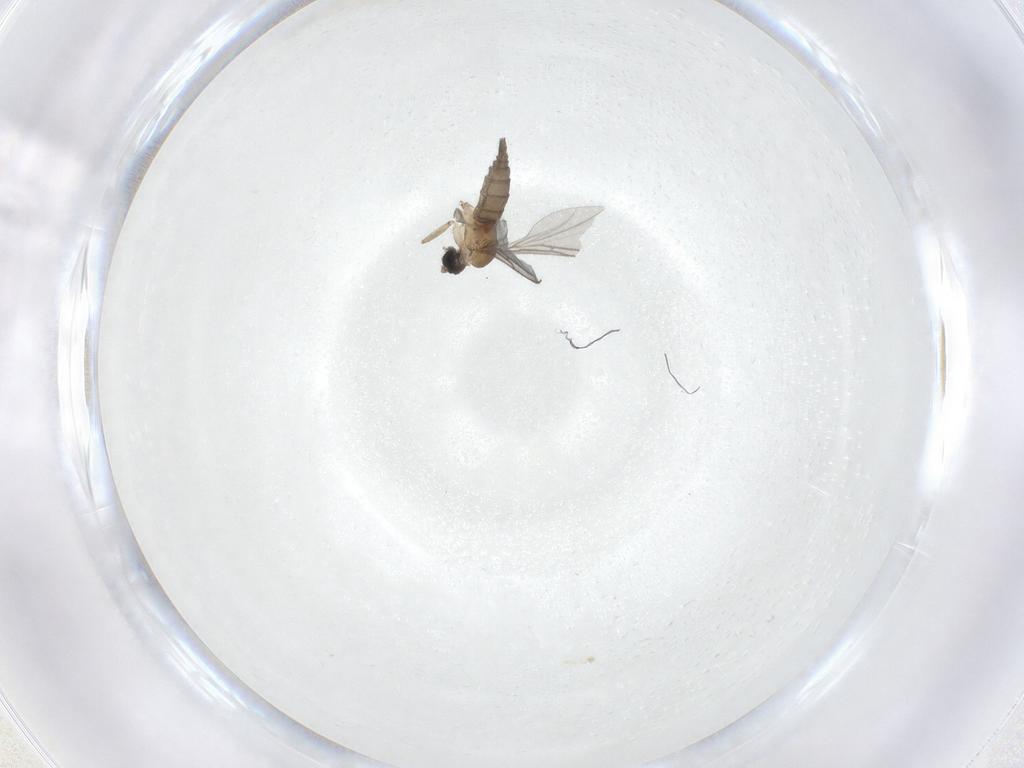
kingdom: Animalia
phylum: Arthropoda
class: Insecta
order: Diptera
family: Sciaridae
